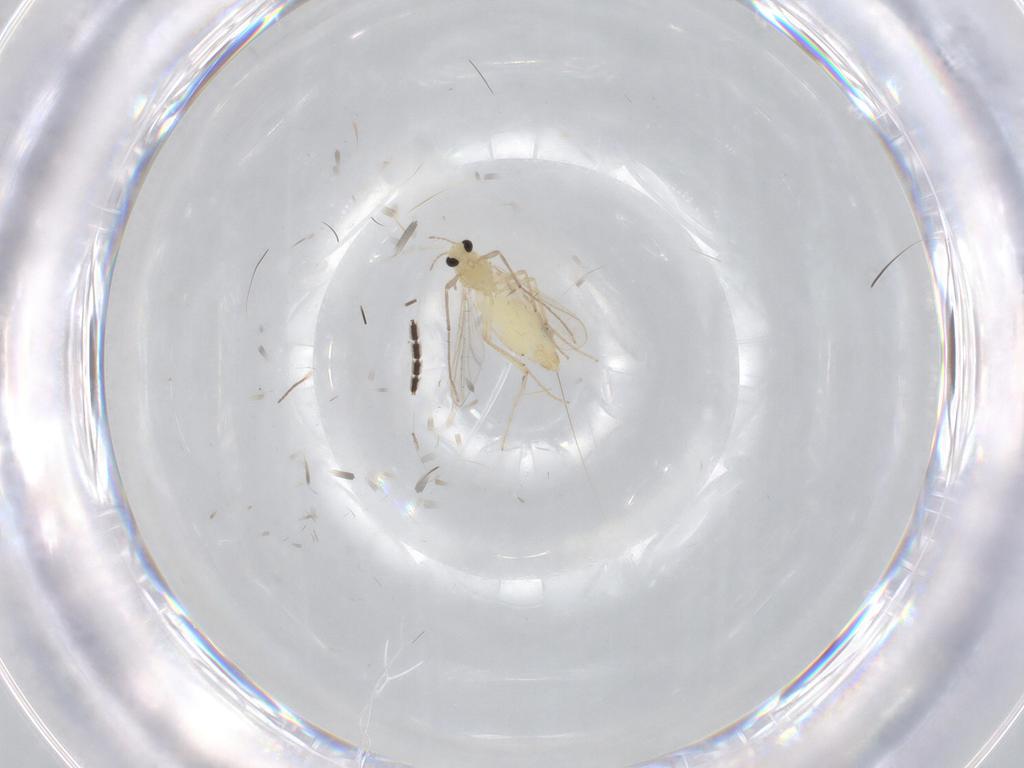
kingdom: Animalia
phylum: Arthropoda
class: Insecta
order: Diptera
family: Chironomidae
